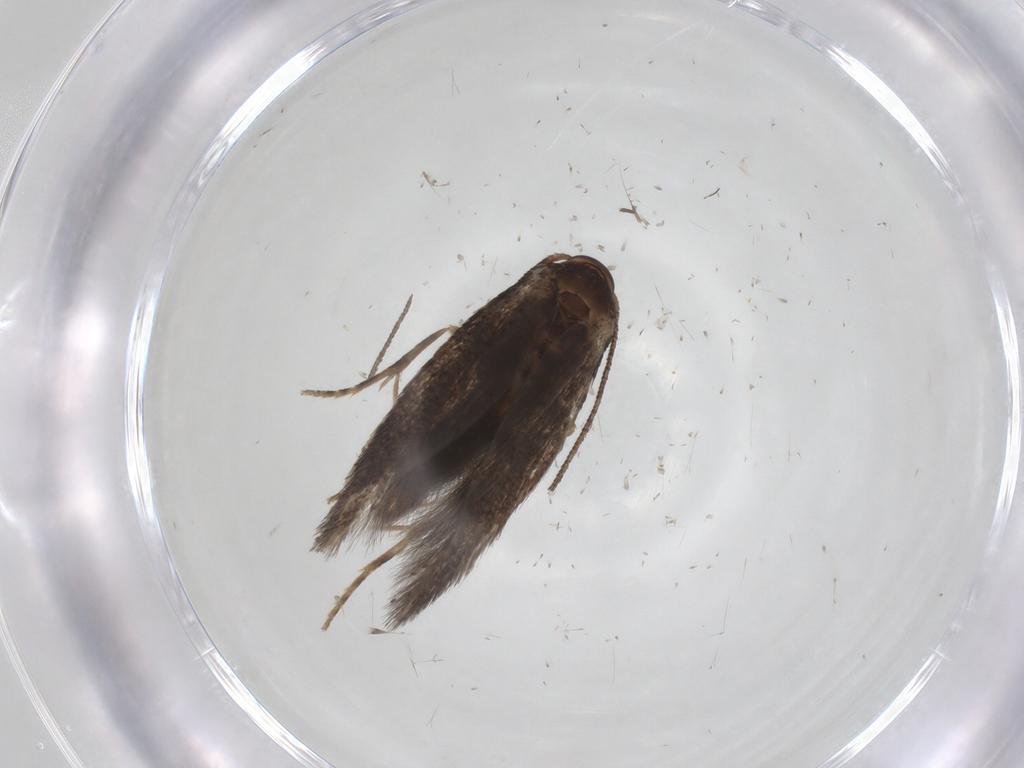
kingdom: Animalia
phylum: Arthropoda
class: Insecta
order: Lepidoptera
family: Elachistidae
